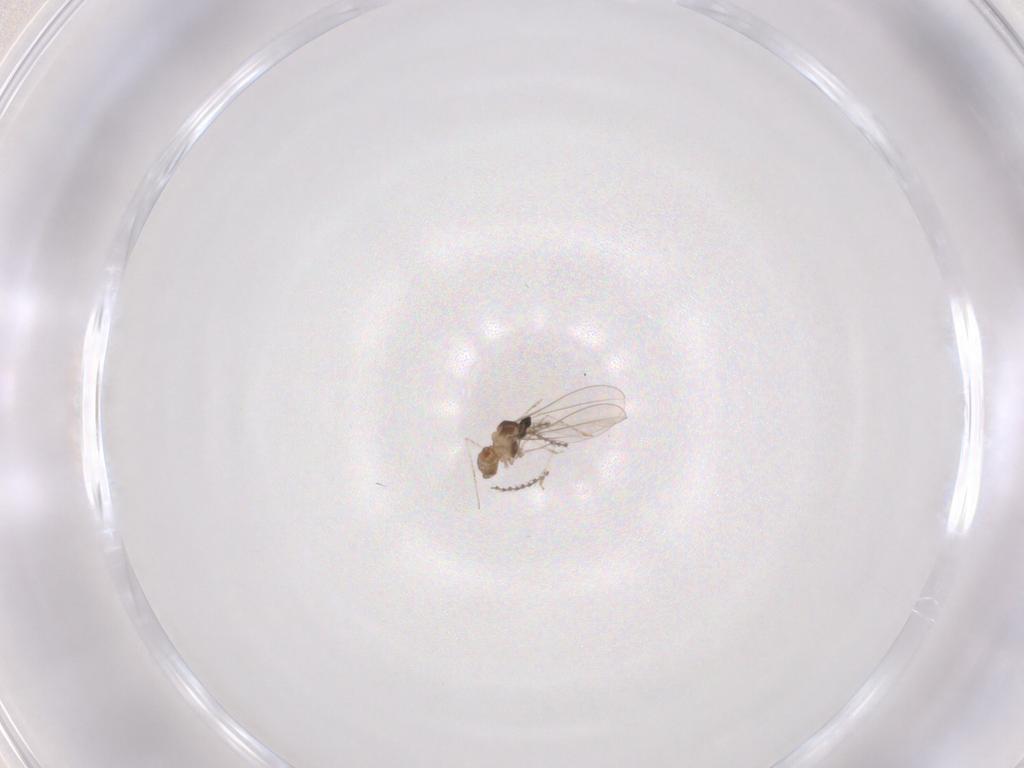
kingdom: Animalia
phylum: Arthropoda
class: Insecta
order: Diptera
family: Cecidomyiidae
